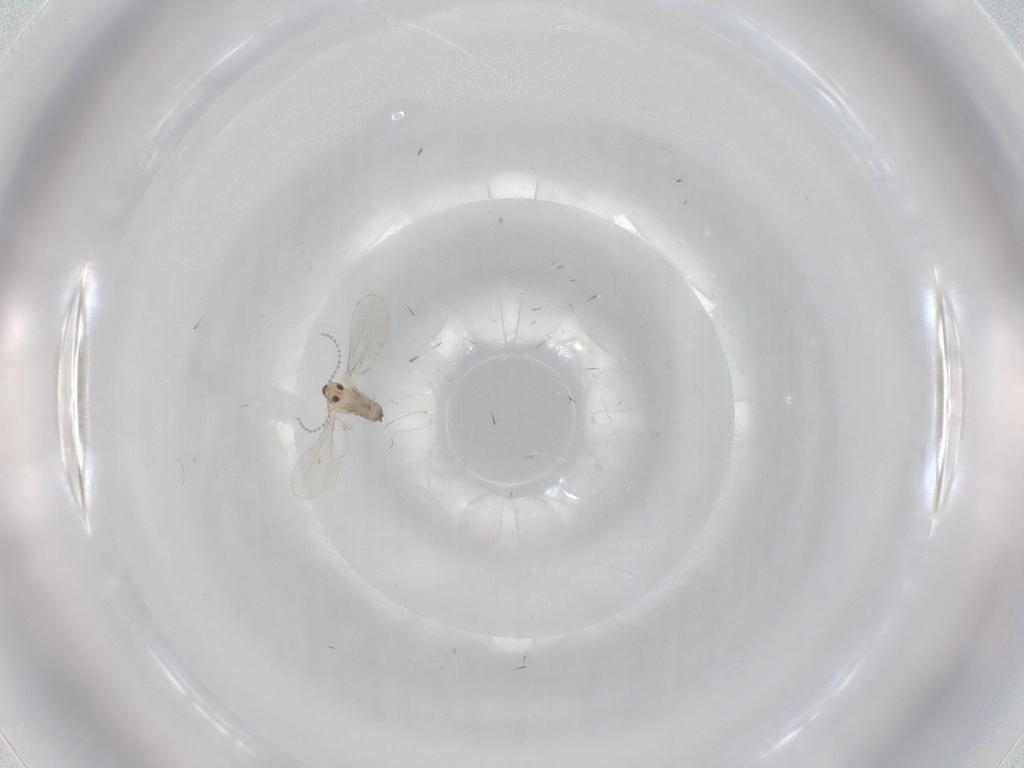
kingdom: Animalia
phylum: Arthropoda
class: Insecta
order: Diptera
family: Cecidomyiidae
